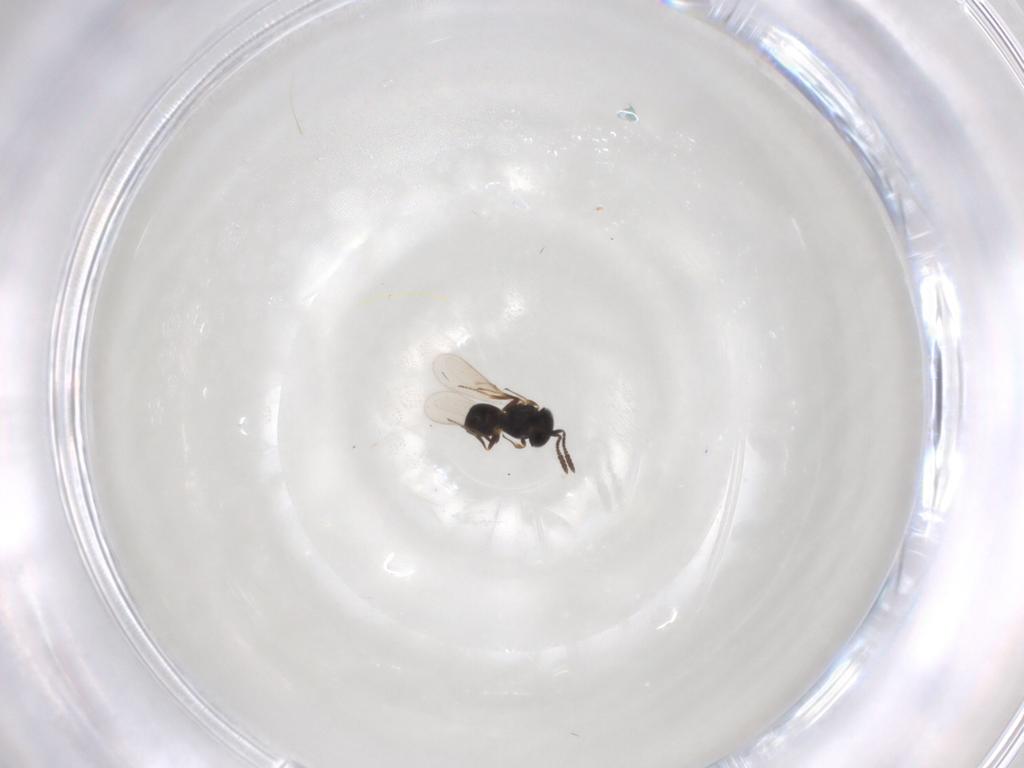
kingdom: Animalia
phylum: Arthropoda
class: Insecta
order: Hymenoptera
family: Scelionidae
